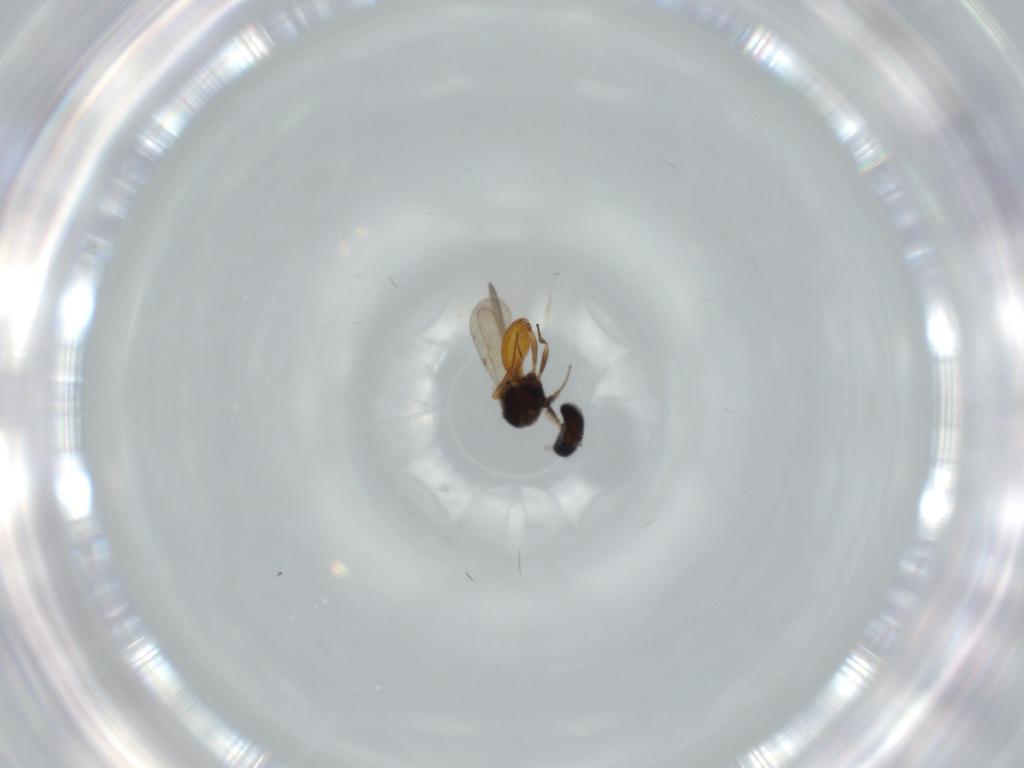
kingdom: Animalia
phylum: Arthropoda
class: Insecta
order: Hymenoptera
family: Scelionidae
